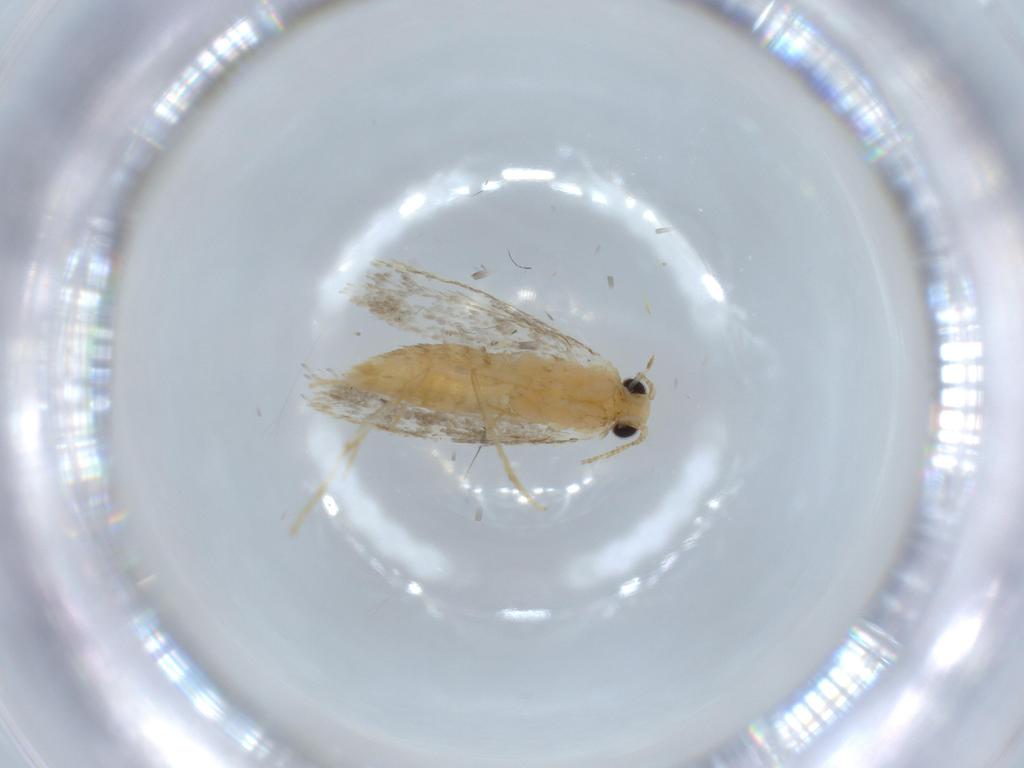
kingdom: Animalia
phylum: Arthropoda
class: Insecta
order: Lepidoptera
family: Tineidae
